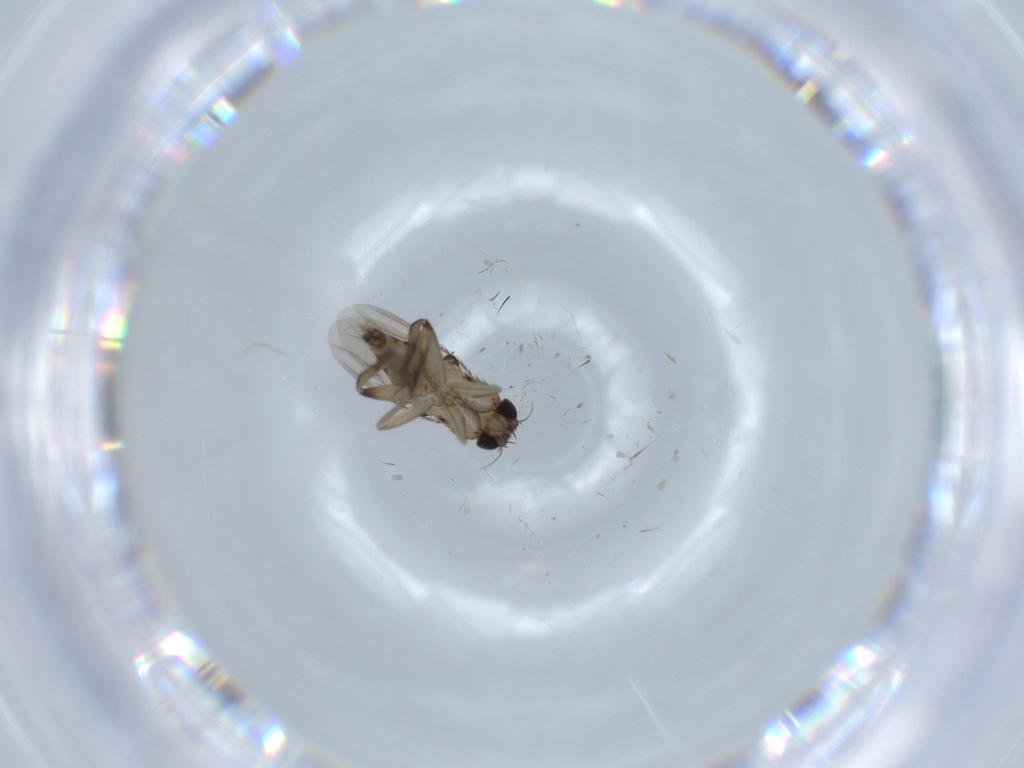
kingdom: Animalia
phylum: Arthropoda
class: Insecta
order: Diptera
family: Phoridae
